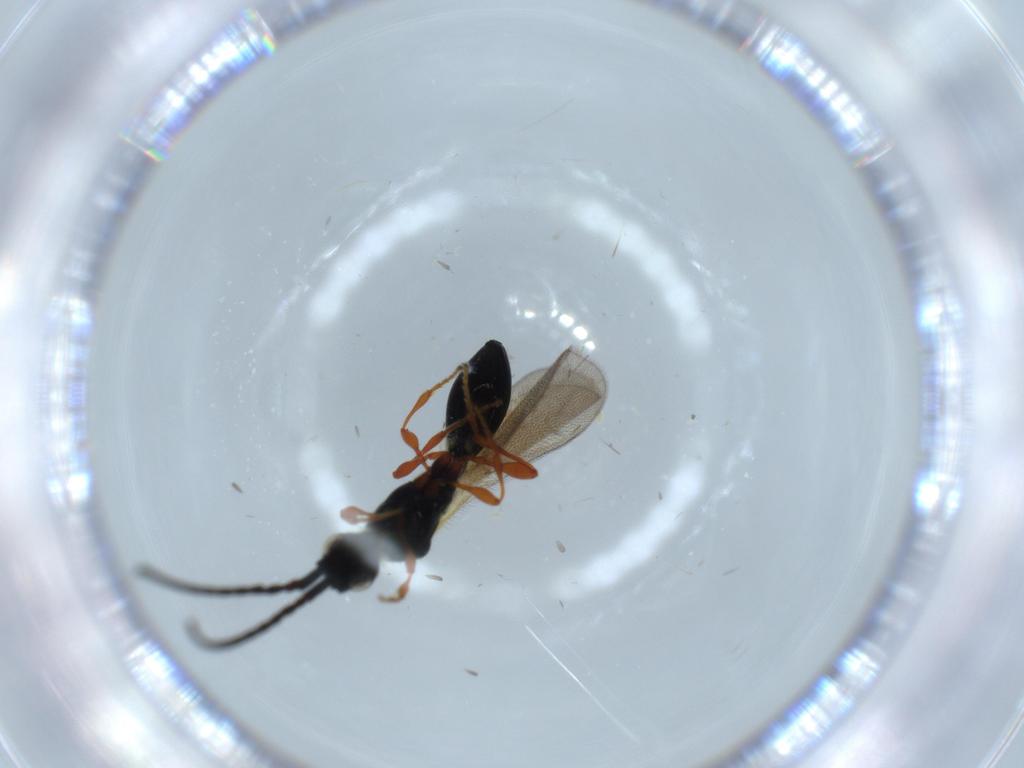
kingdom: Animalia
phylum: Arthropoda
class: Insecta
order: Hymenoptera
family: Diapriidae
